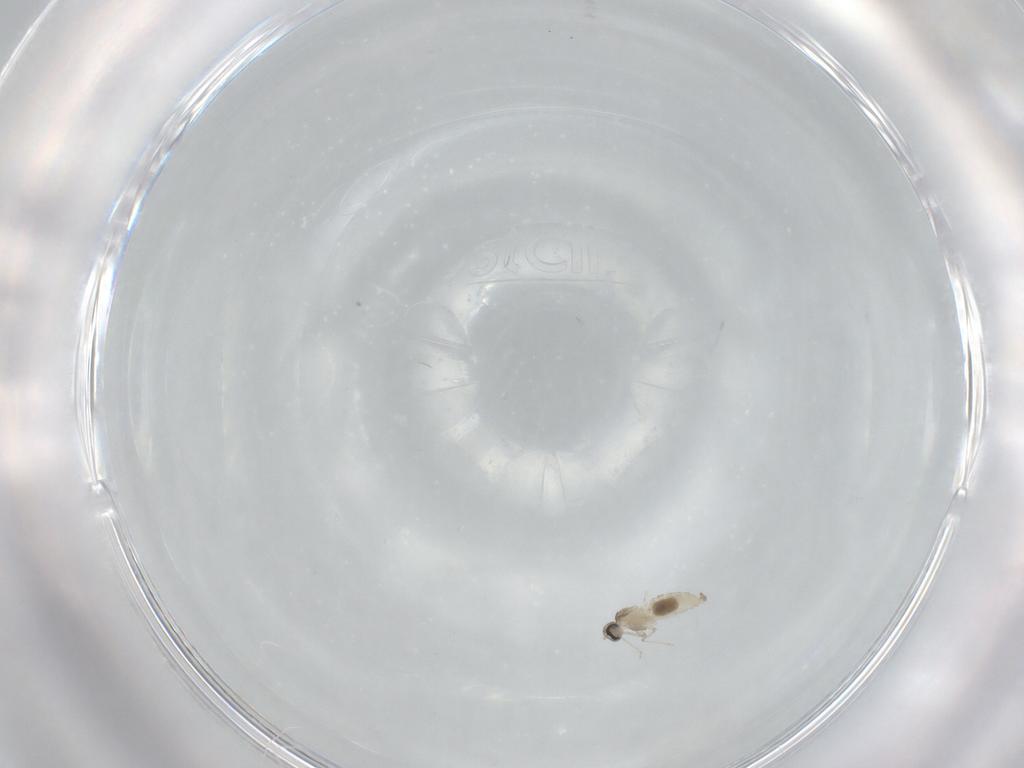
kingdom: Animalia
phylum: Arthropoda
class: Insecta
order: Diptera
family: Cecidomyiidae
